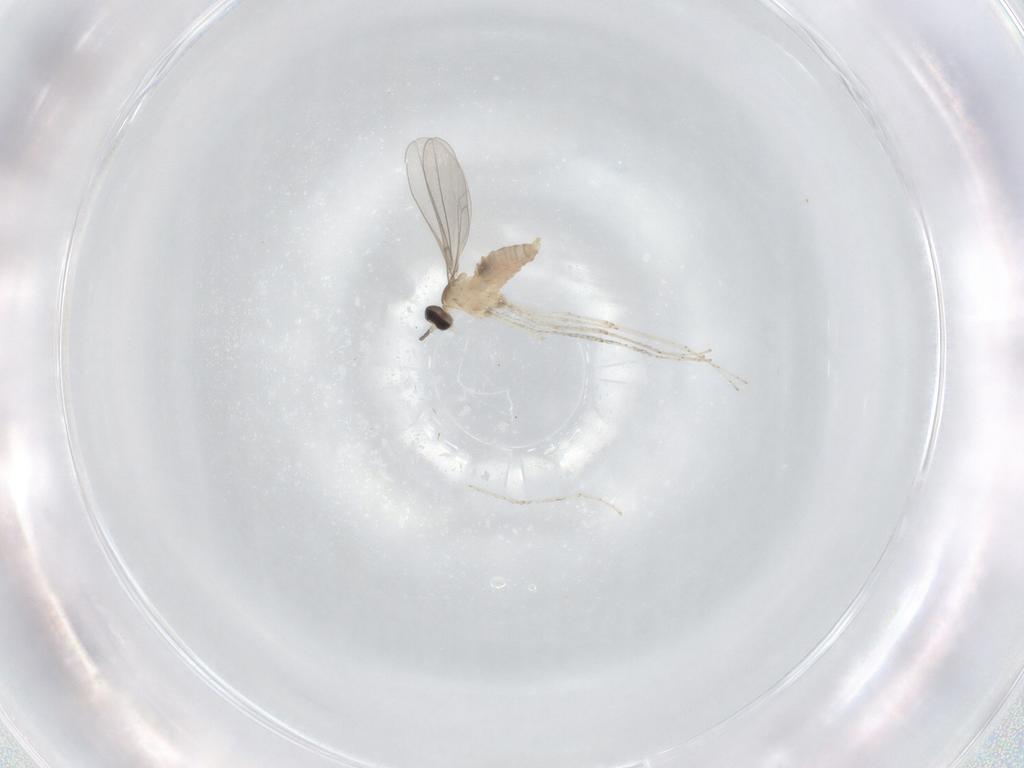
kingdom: Animalia
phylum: Arthropoda
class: Insecta
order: Diptera
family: Cecidomyiidae
